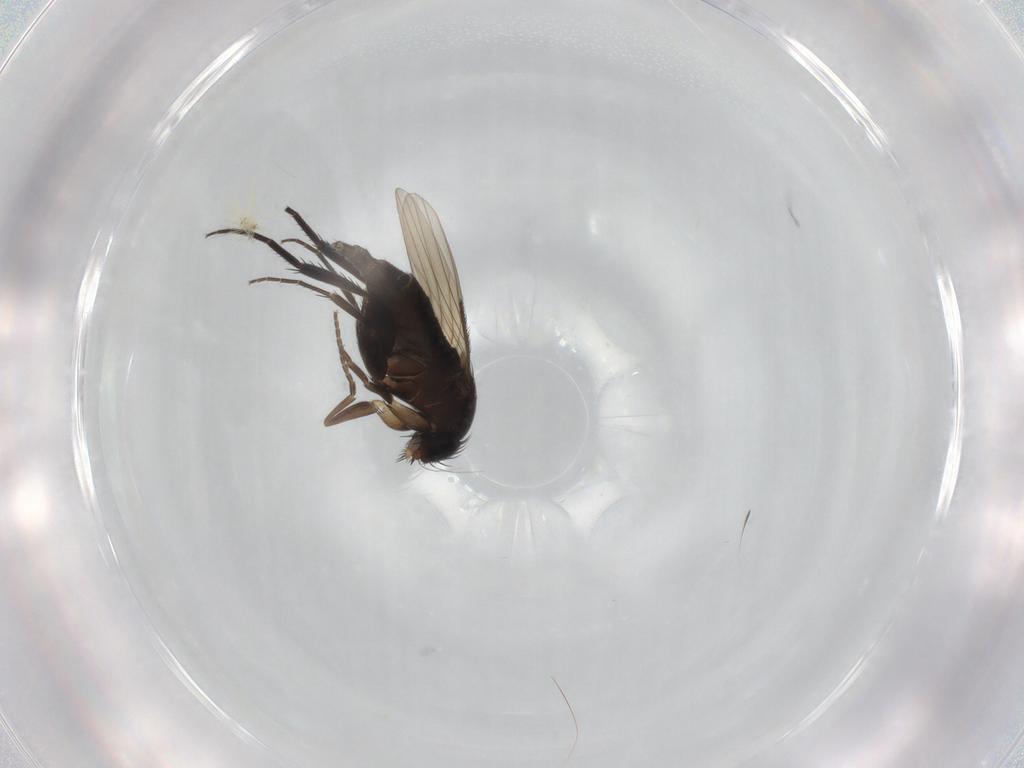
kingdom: Animalia
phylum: Arthropoda
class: Insecta
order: Diptera
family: Phoridae
